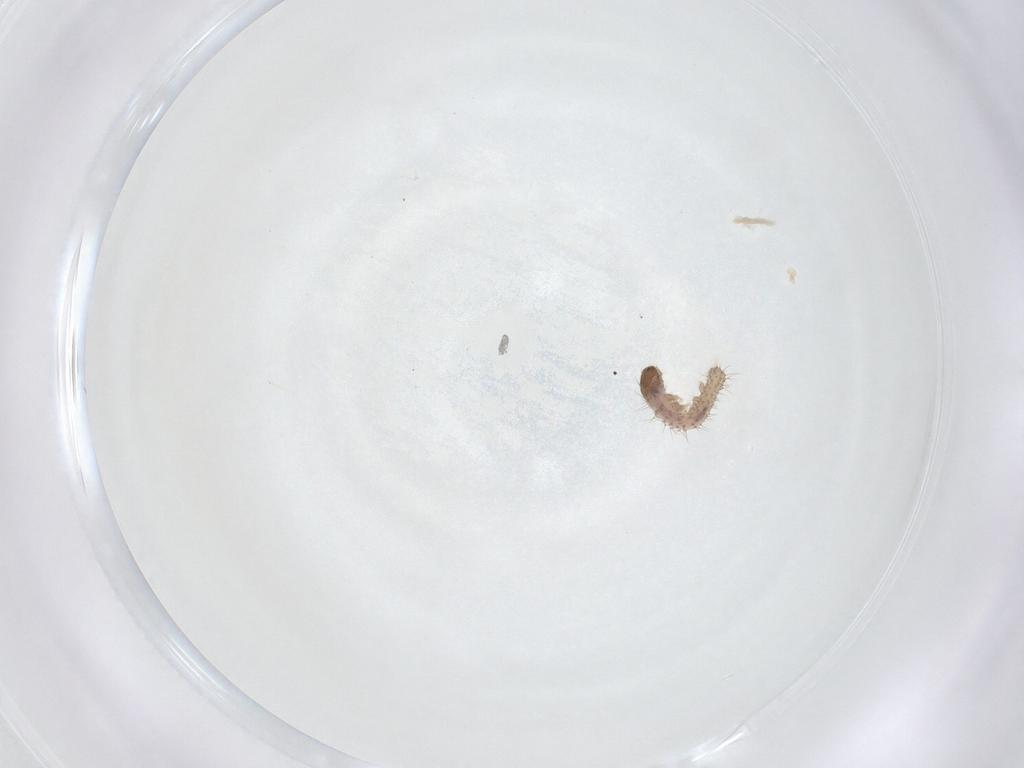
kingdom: Animalia
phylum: Arthropoda
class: Insecta
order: Lepidoptera
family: Erebidae
